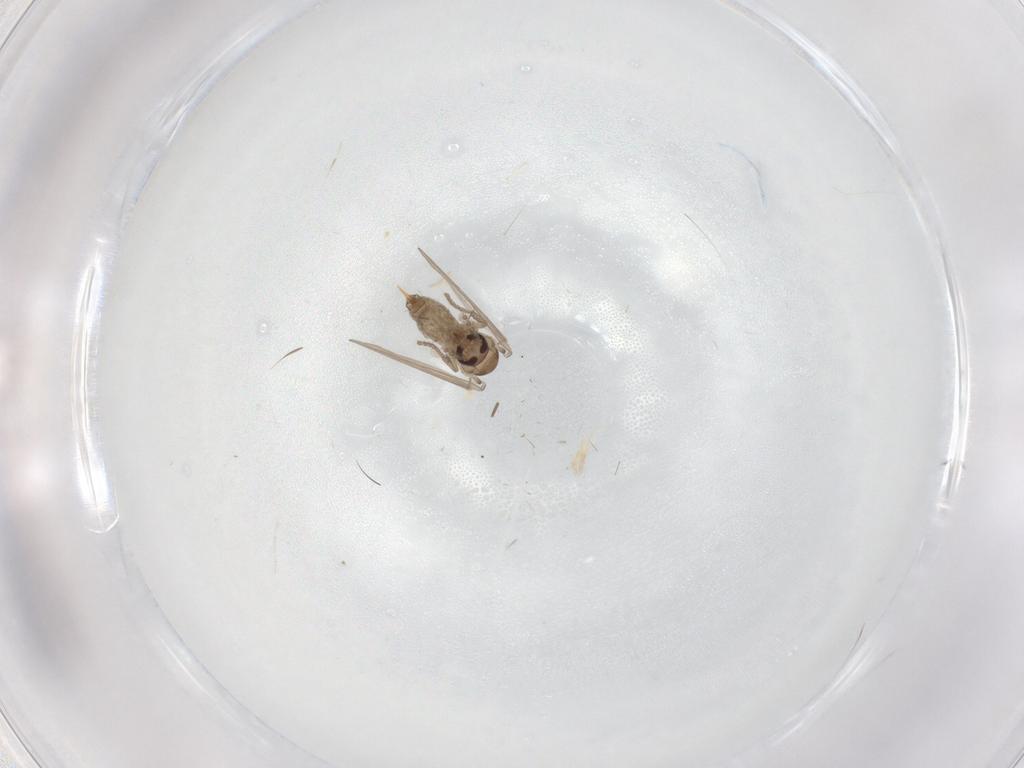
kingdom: Animalia
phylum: Arthropoda
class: Insecta
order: Diptera
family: Psychodidae
